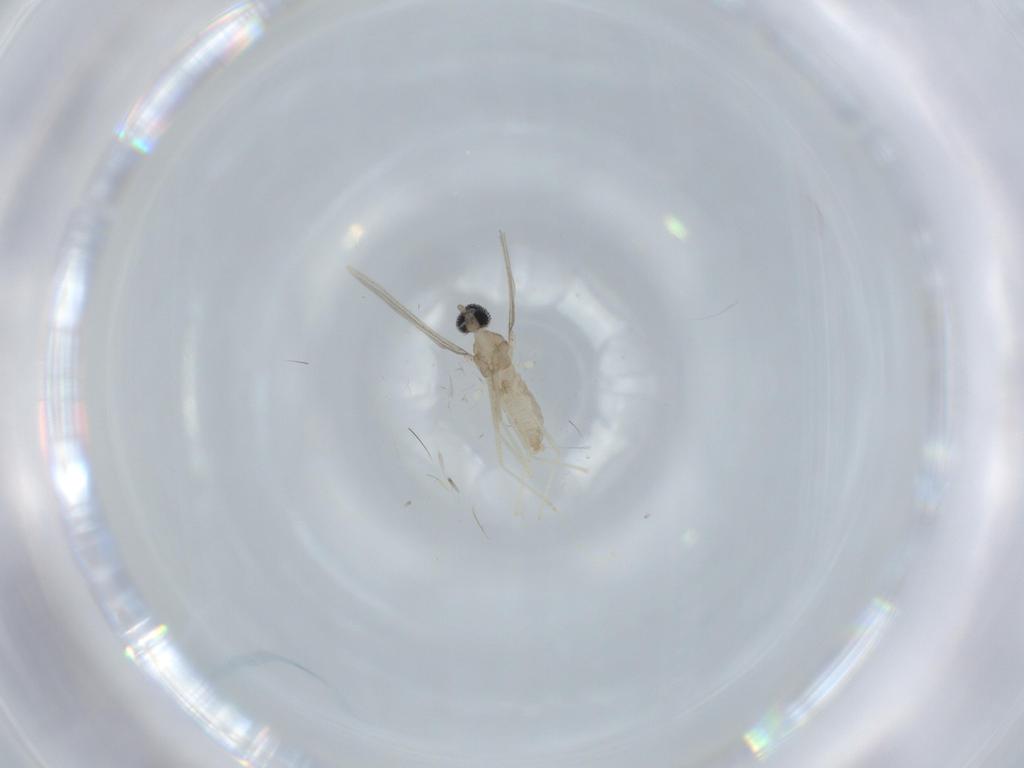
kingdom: Animalia
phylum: Arthropoda
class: Insecta
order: Diptera
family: Cecidomyiidae
